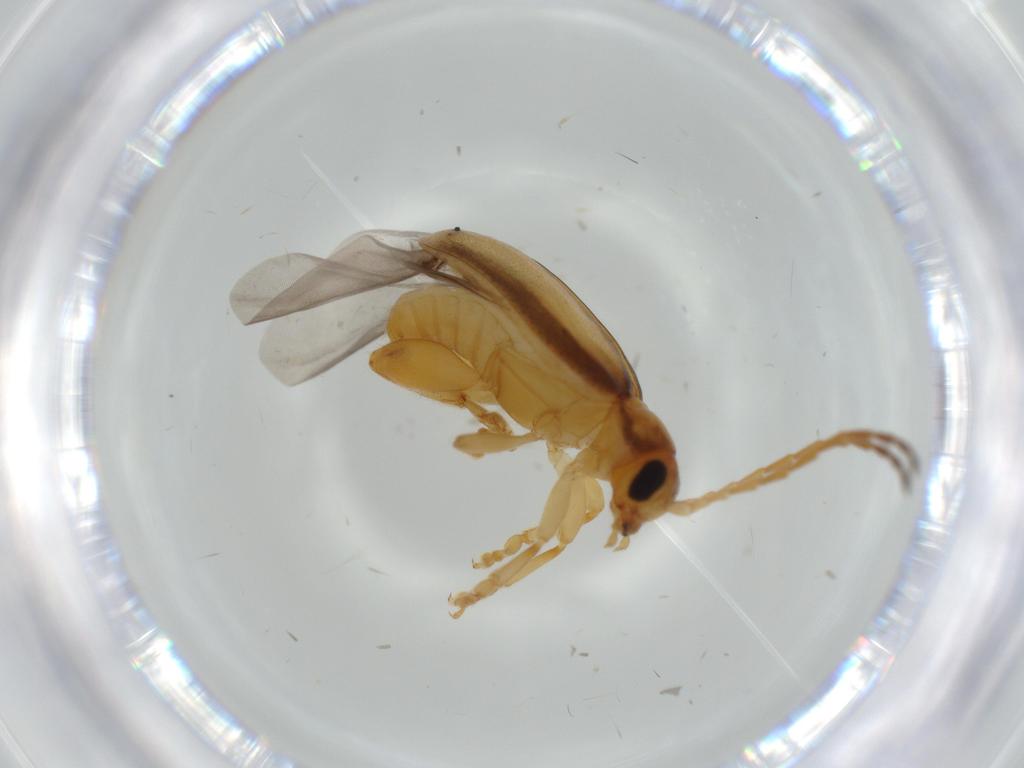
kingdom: Animalia
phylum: Arthropoda
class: Insecta
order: Coleoptera
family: Chrysomelidae
